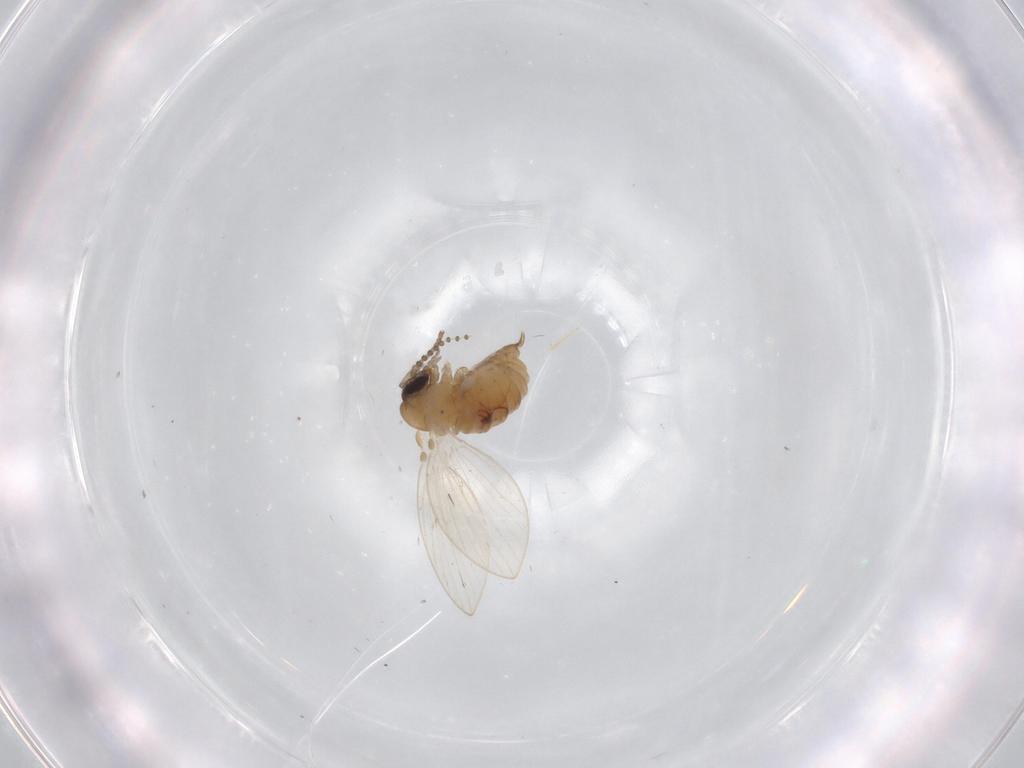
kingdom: Animalia
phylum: Arthropoda
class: Insecta
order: Diptera
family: Psychodidae
